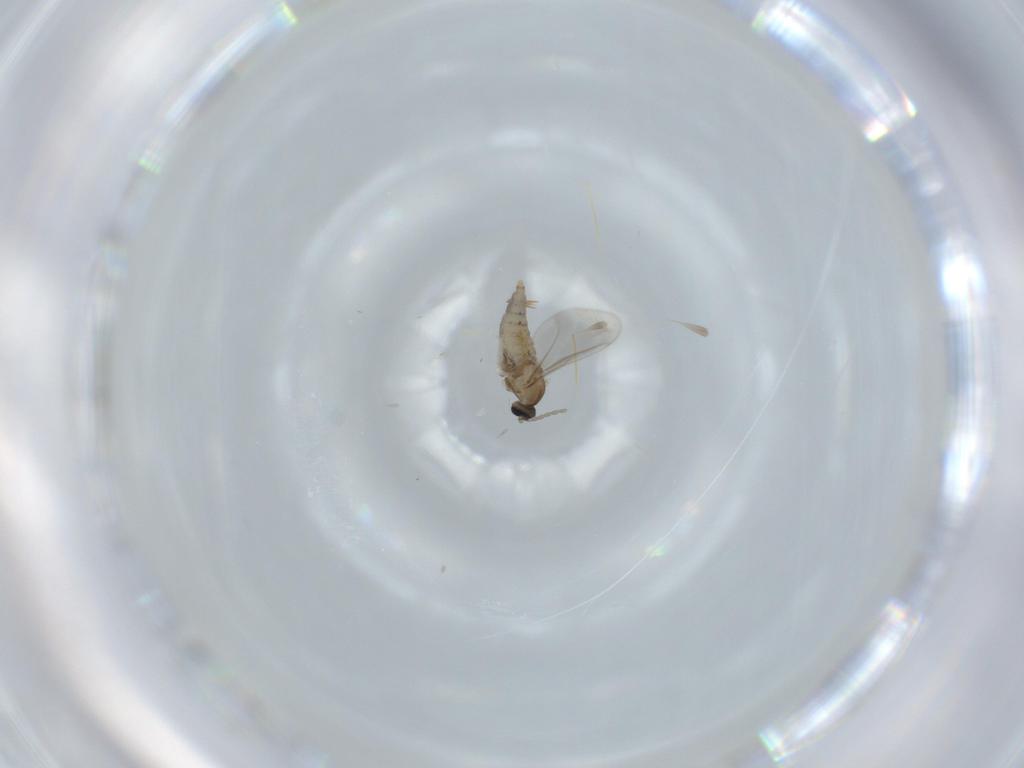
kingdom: Animalia
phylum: Arthropoda
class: Insecta
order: Diptera
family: Cecidomyiidae
